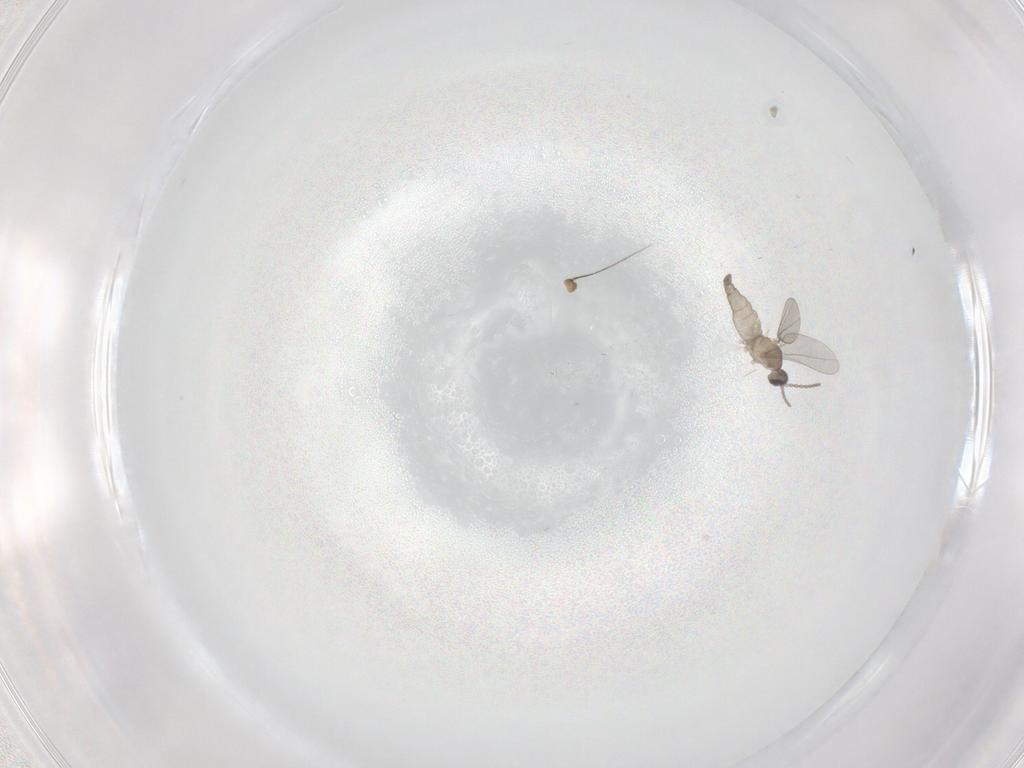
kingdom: Animalia
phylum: Arthropoda
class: Insecta
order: Diptera
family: Cecidomyiidae
